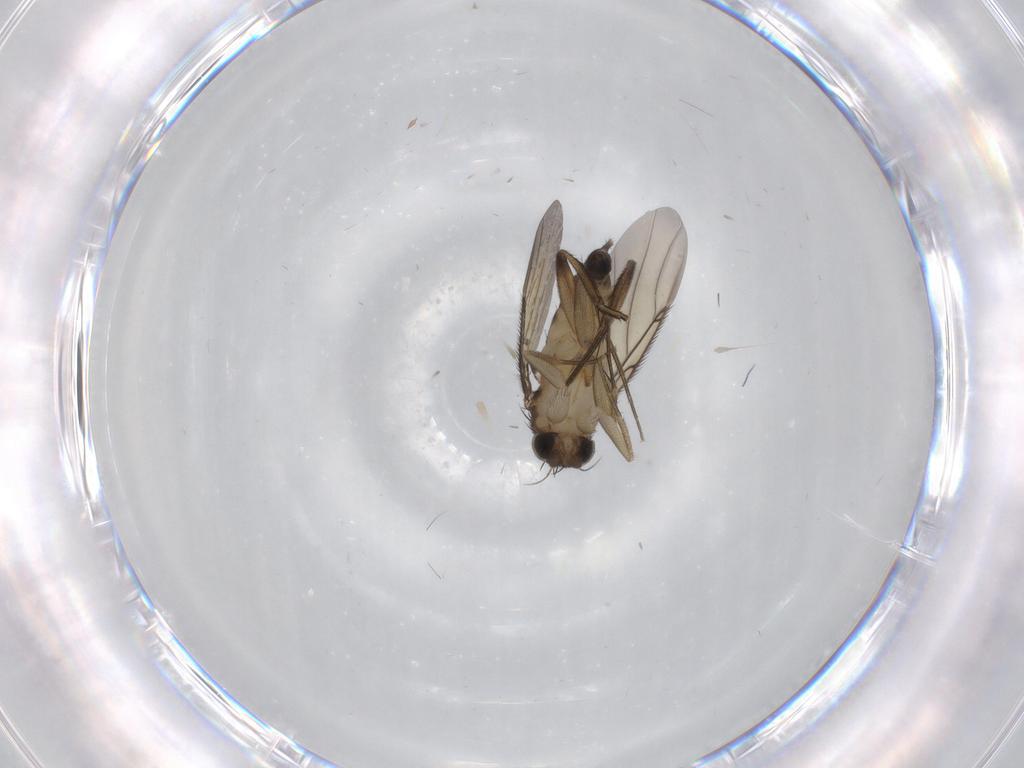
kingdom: Animalia
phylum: Arthropoda
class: Insecta
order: Diptera
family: Cecidomyiidae
